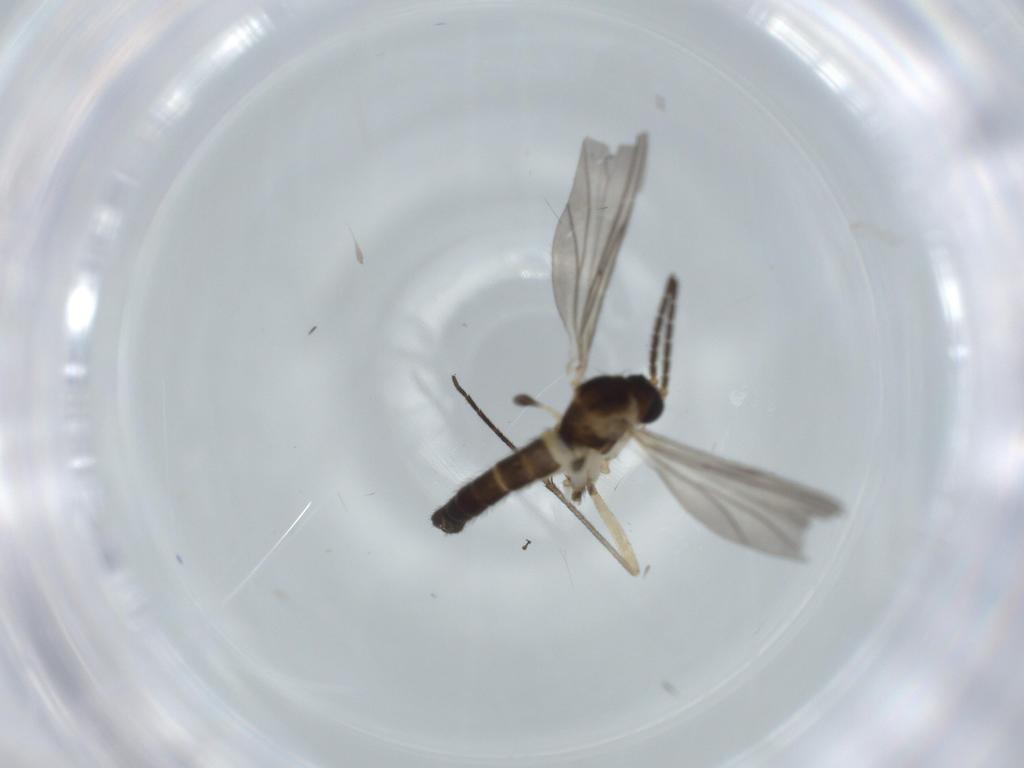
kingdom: Animalia
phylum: Arthropoda
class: Insecta
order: Diptera
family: Sciaridae
